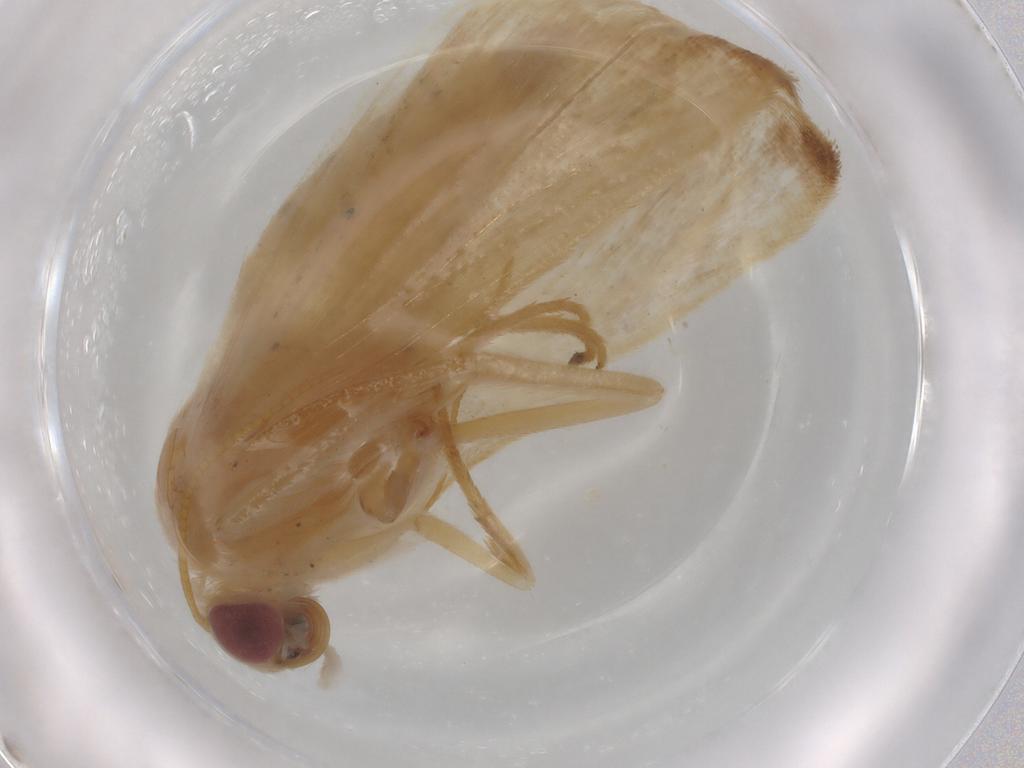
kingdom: Animalia
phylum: Arthropoda
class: Insecta
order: Lepidoptera
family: Noctuidae
